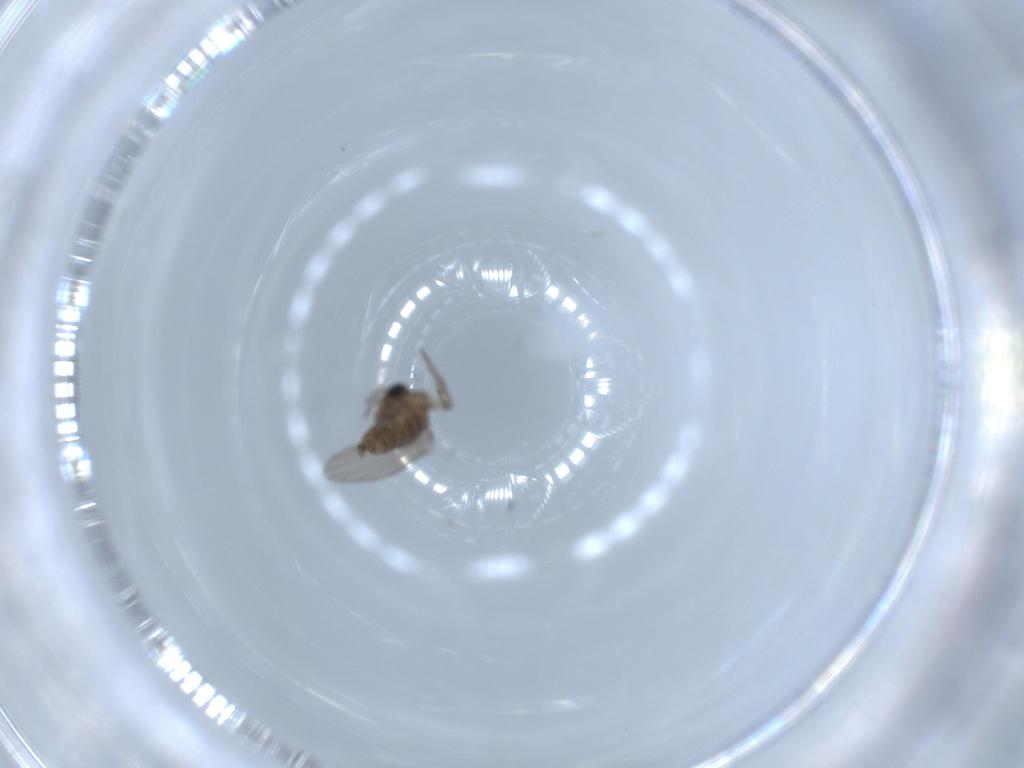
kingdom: Animalia
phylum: Arthropoda
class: Insecta
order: Diptera
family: Psychodidae
